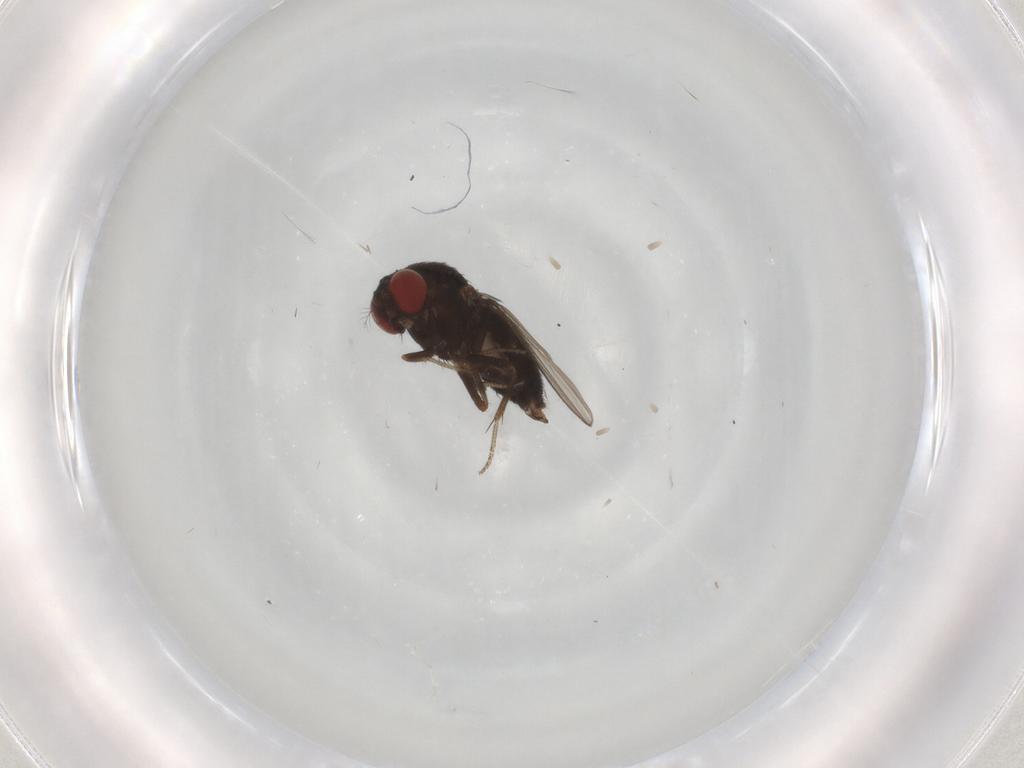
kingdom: Animalia
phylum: Arthropoda
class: Insecta
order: Diptera
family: Drosophilidae
